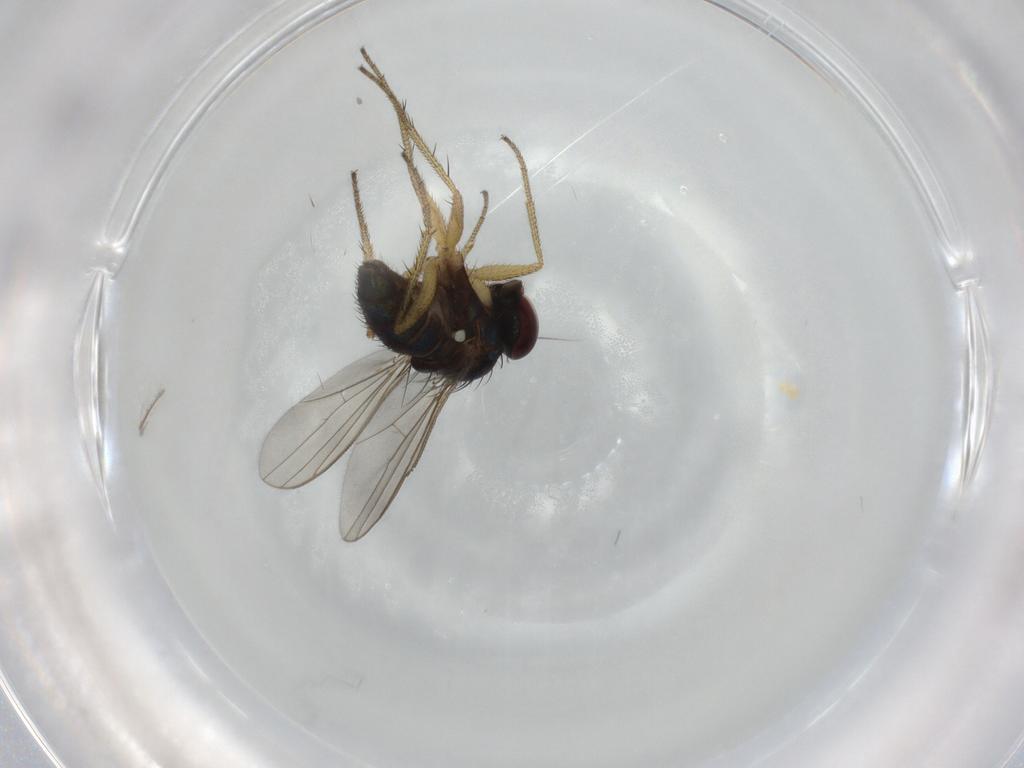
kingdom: Animalia
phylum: Arthropoda
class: Insecta
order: Diptera
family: Sciaridae
